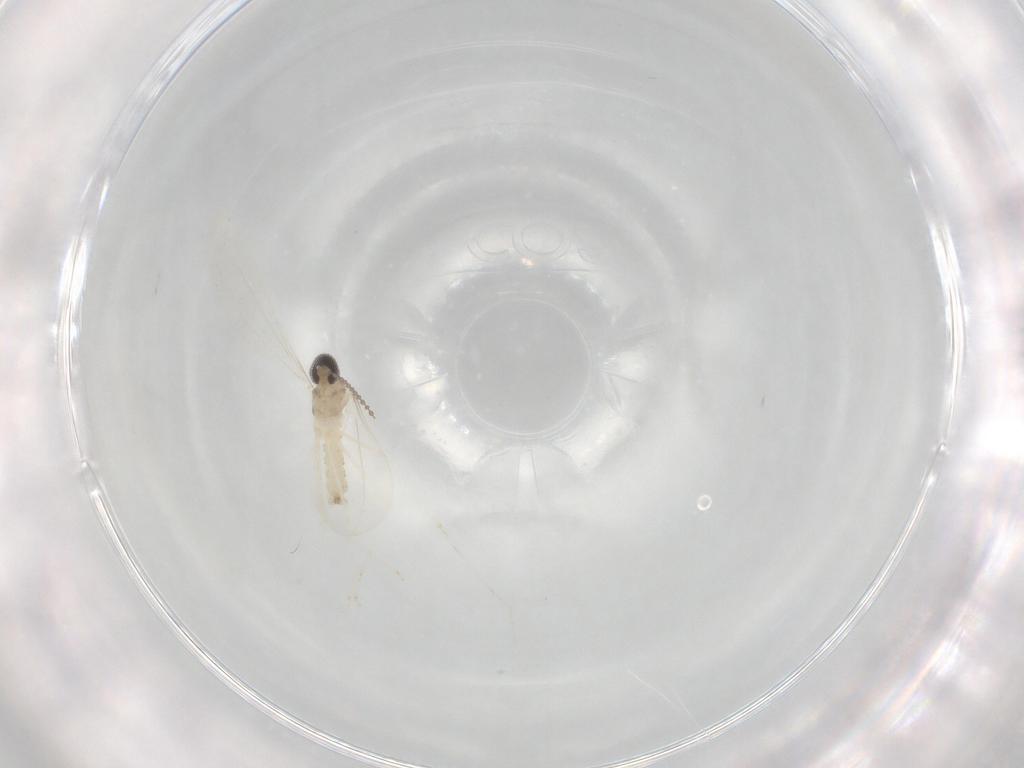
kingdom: Animalia
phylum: Arthropoda
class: Insecta
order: Diptera
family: Cecidomyiidae
